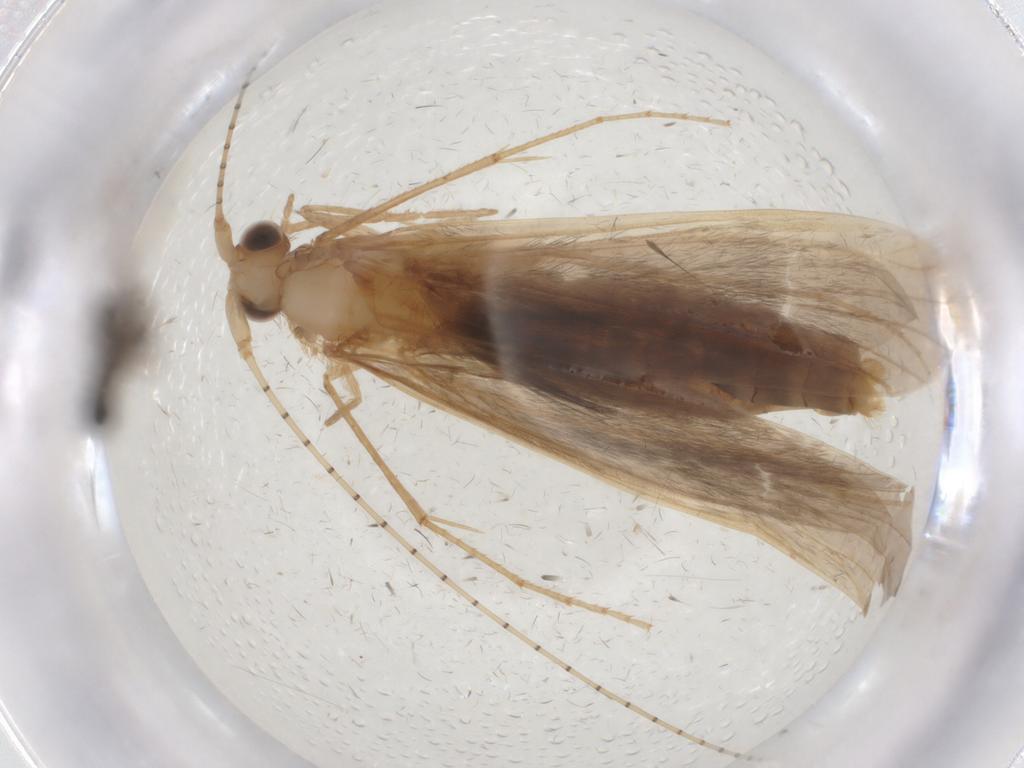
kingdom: Animalia
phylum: Arthropoda
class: Insecta
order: Trichoptera
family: Leptoceridae
